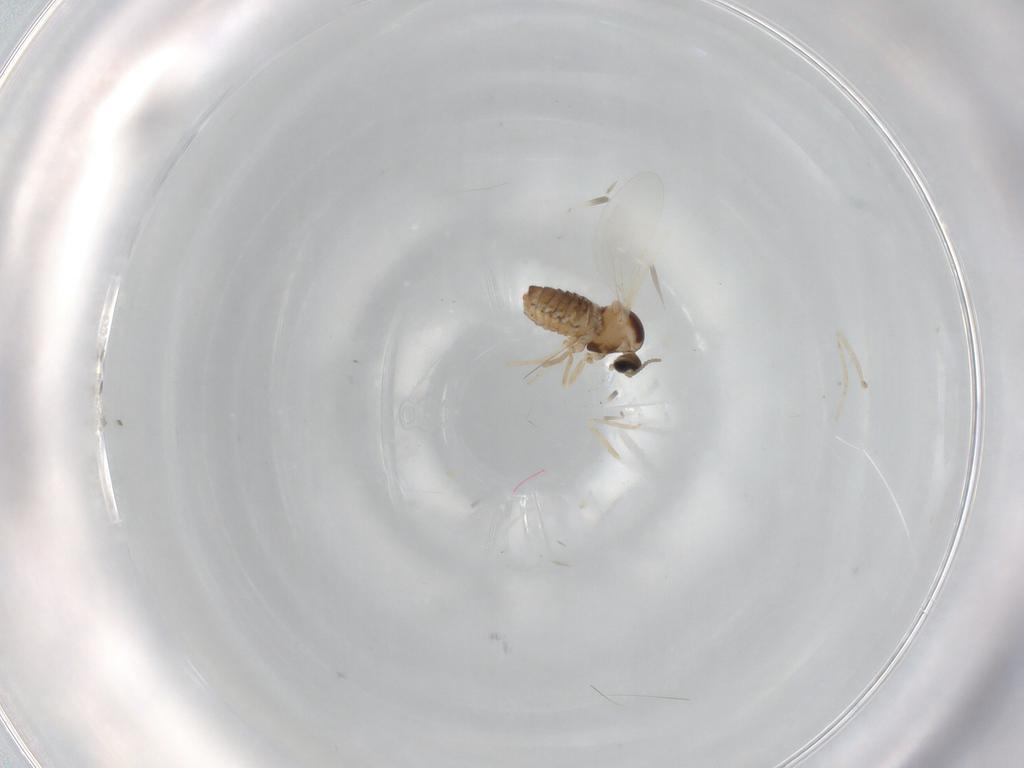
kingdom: Animalia
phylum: Arthropoda
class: Insecta
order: Diptera
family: Cecidomyiidae
